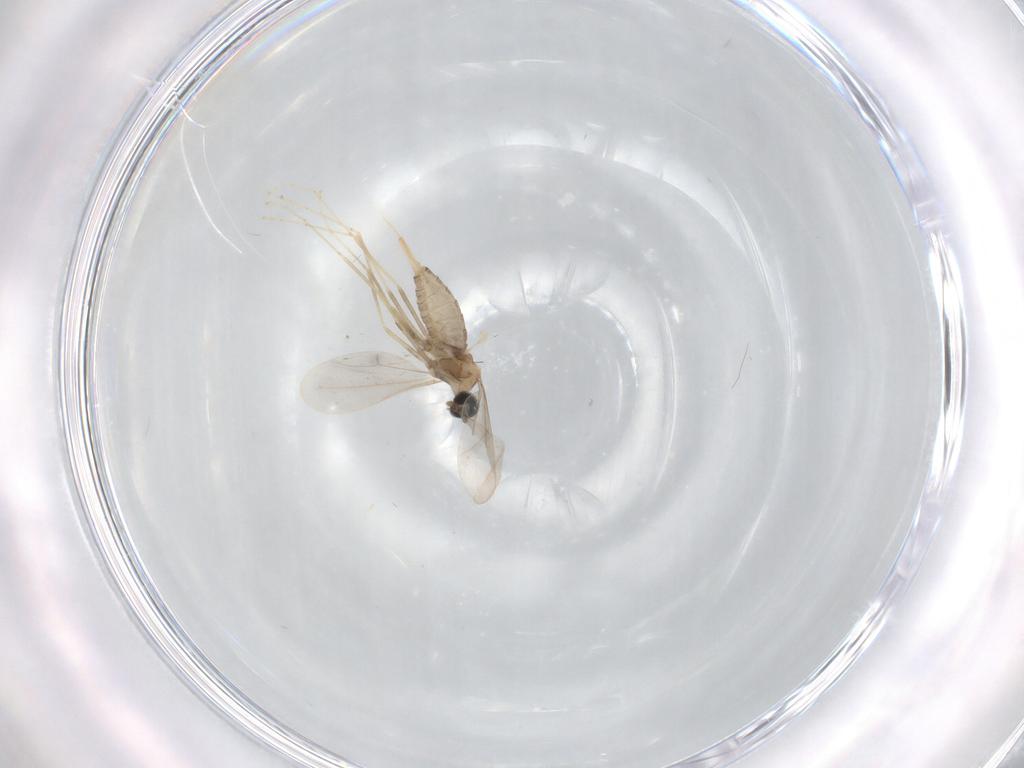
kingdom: Animalia
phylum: Arthropoda
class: Insecta
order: Diptera
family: Cecidomyiidae
